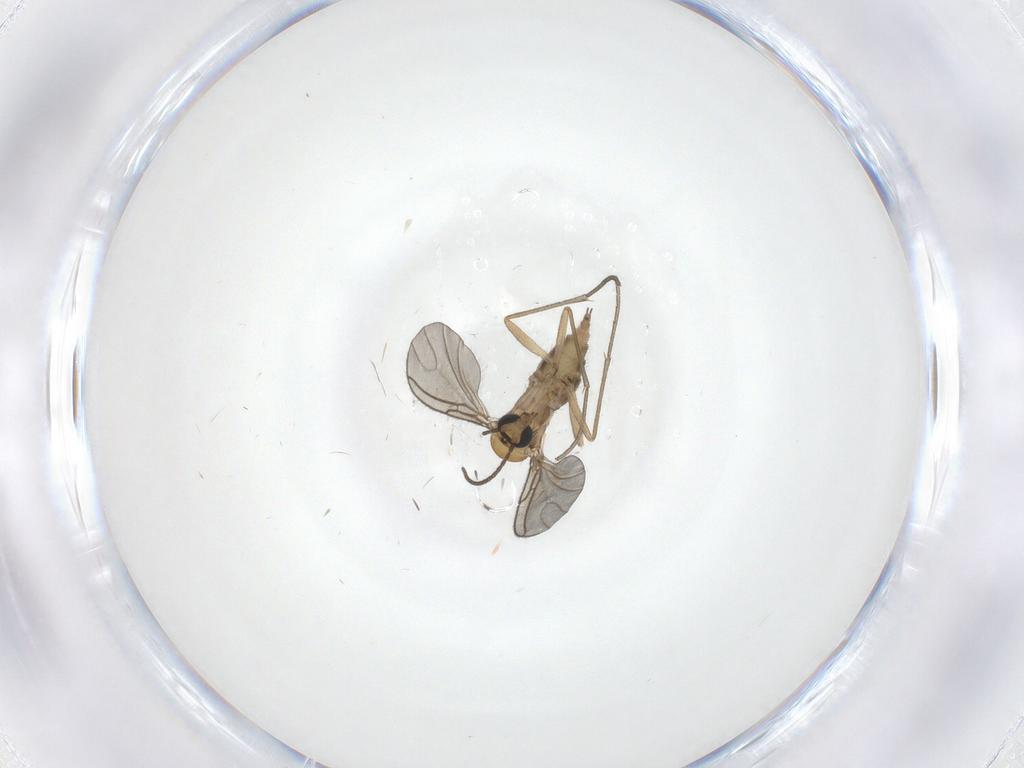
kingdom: Animalia
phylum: Arthropoda
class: Insecta
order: Diptera
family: Sciaridae
